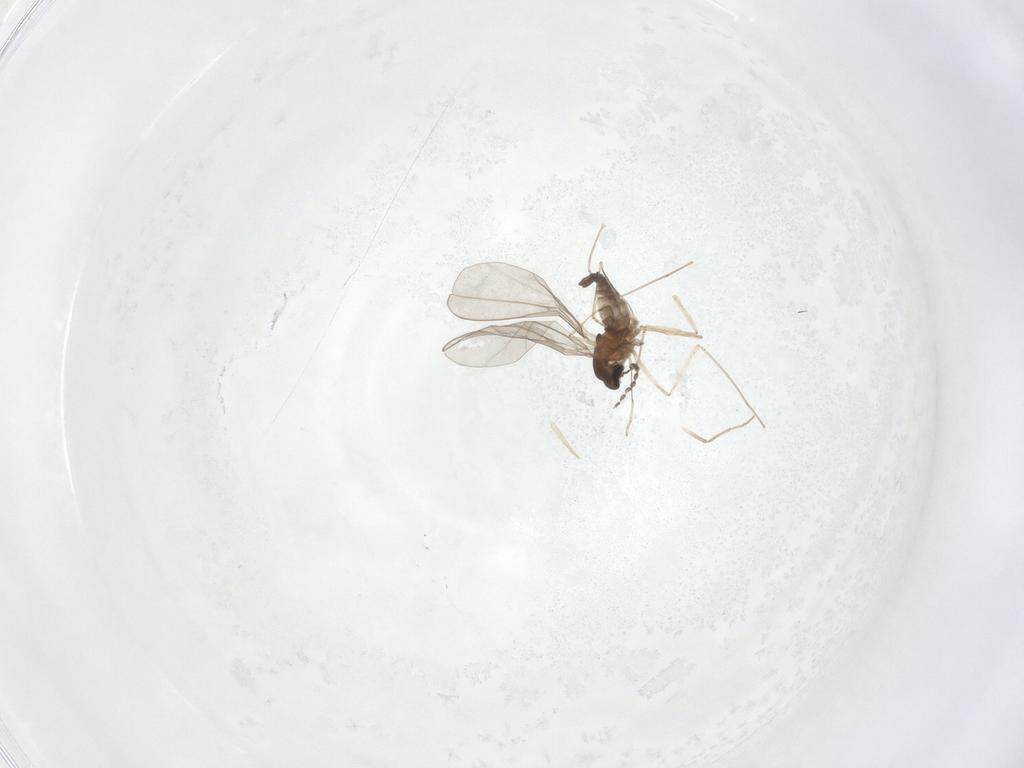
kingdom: Animalia
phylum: Arthropoda
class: Insecta
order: Diptera
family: Cecidomyiidae
